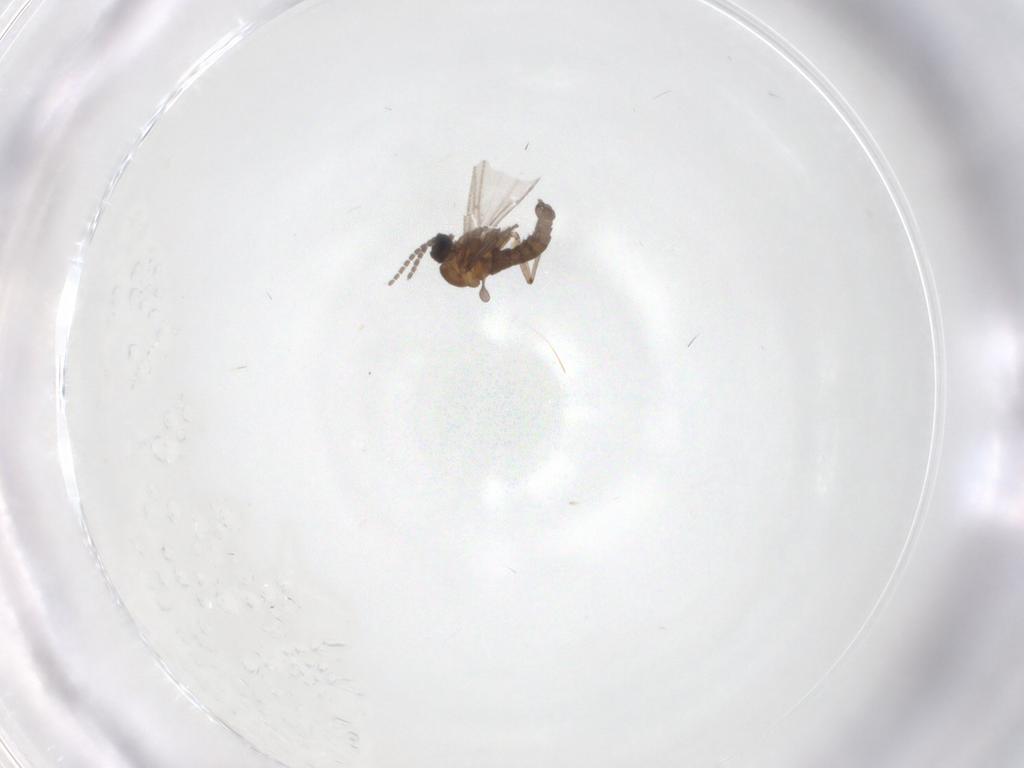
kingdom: Animalia
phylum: Arthropoda
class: Insecta
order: Diptera
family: Sciaridae
